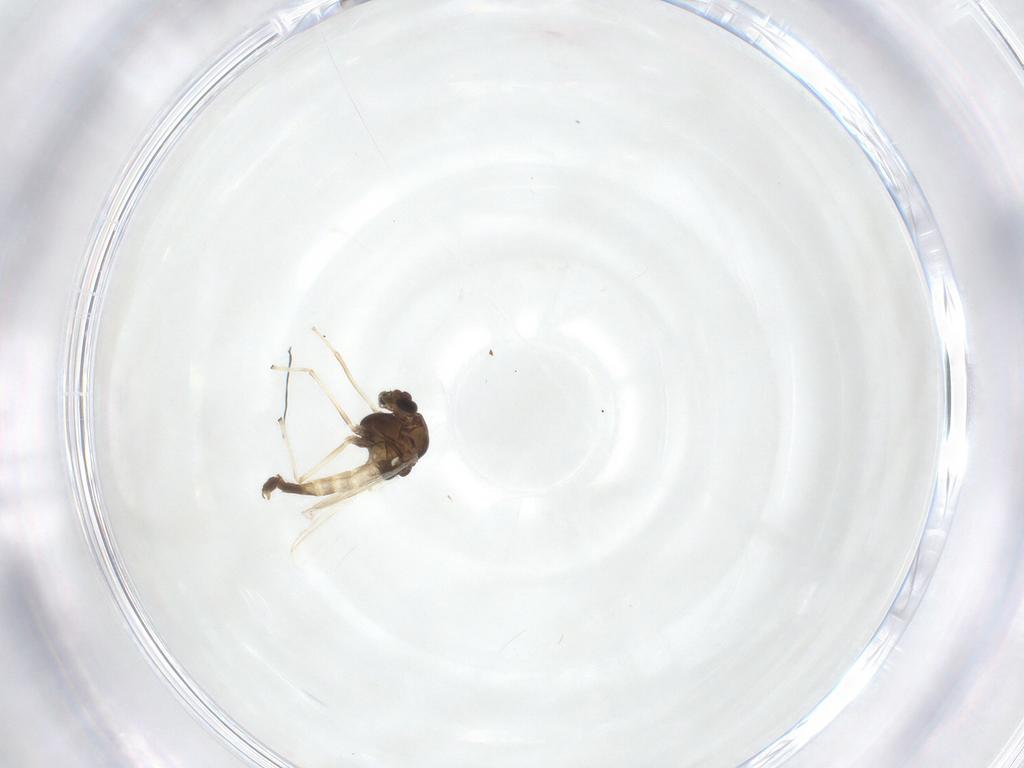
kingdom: Animalia
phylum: Arthropoda
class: Insecta
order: Diptera
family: Chironomidae
